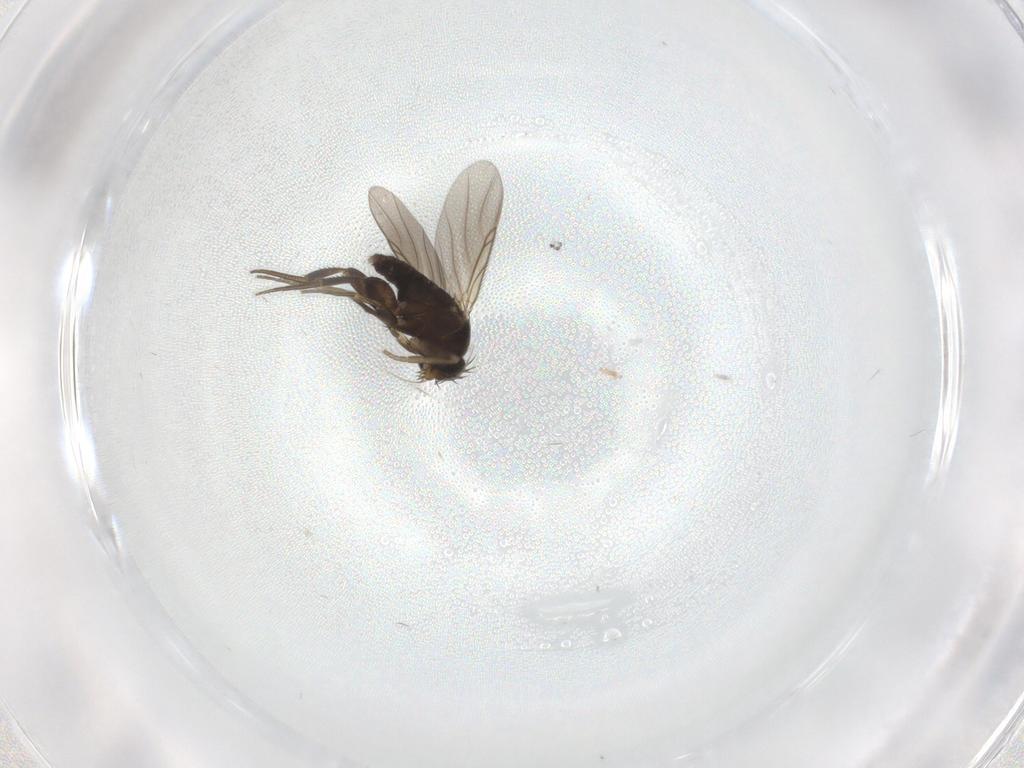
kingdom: Animalia
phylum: Arthropoda
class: Insecta
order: Diptera
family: Phoridae
